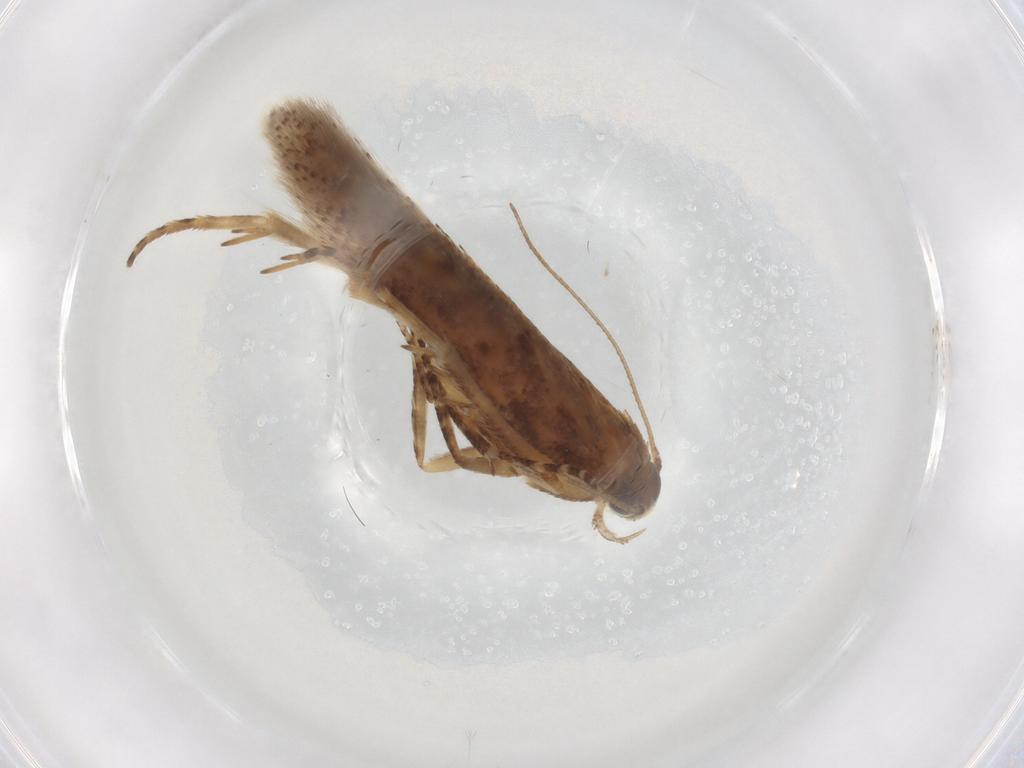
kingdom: Animalia
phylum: Arthropoda
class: Insecta
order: Lepidoptera
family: Gelechiidae
